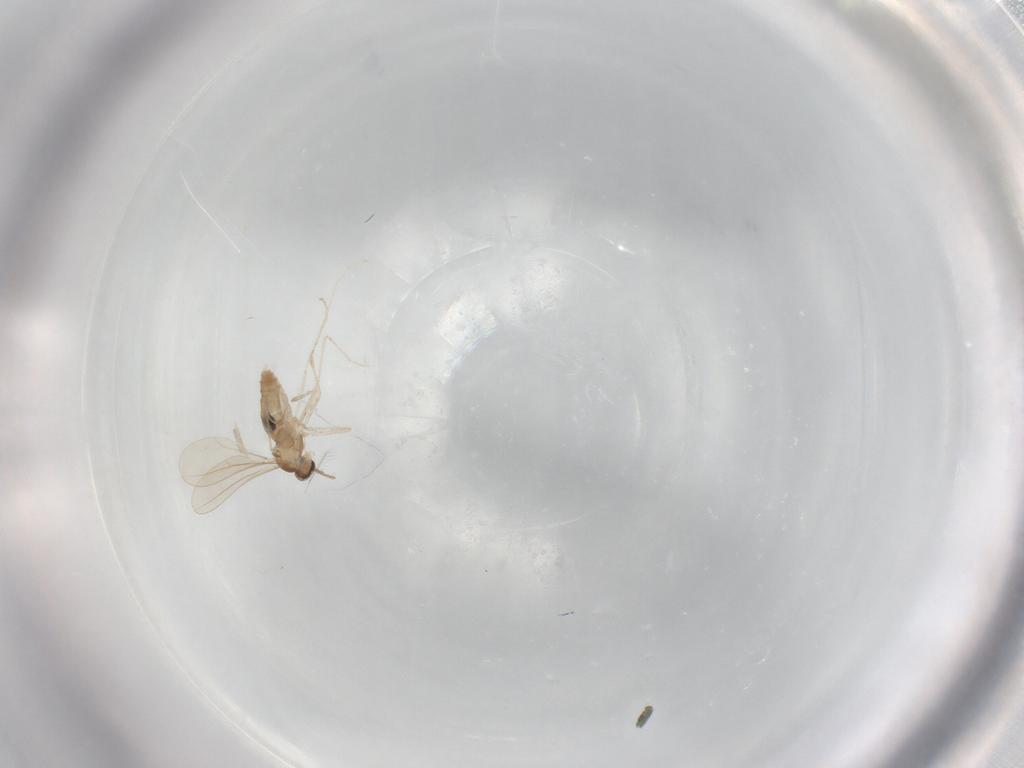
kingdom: Animalia
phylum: Arthropoda
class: Insecta
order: Diptera
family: Cecidomyiidae
